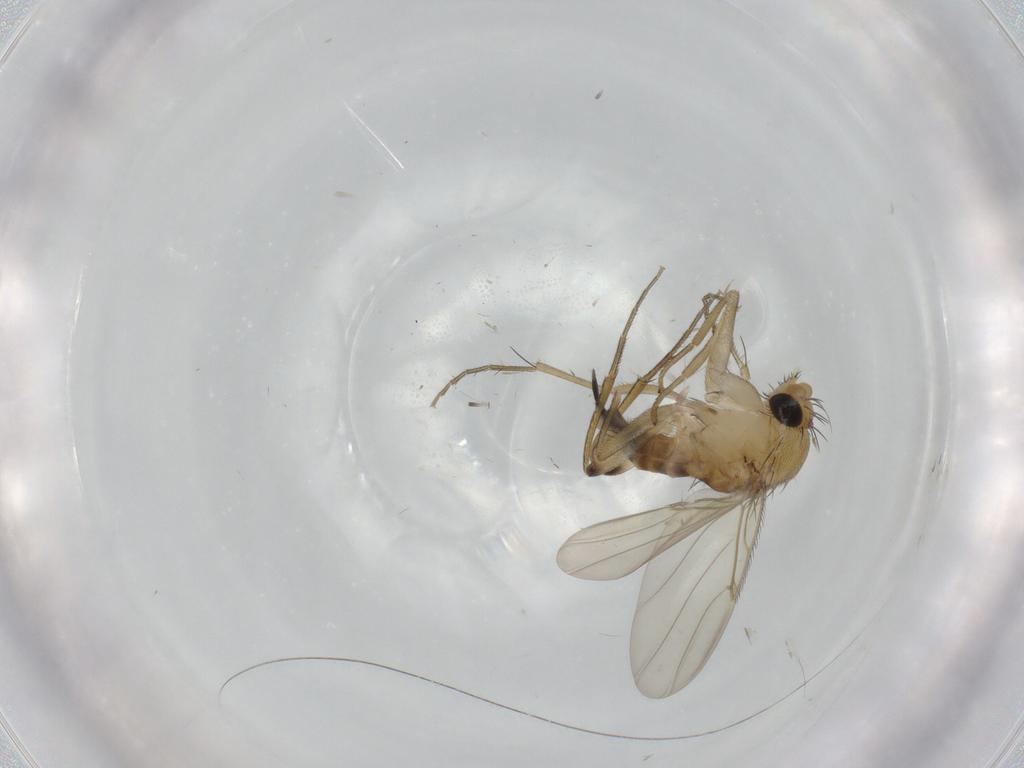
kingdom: Animalia
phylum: Arthropoda
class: Insecta
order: Diptera
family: Phoridae
